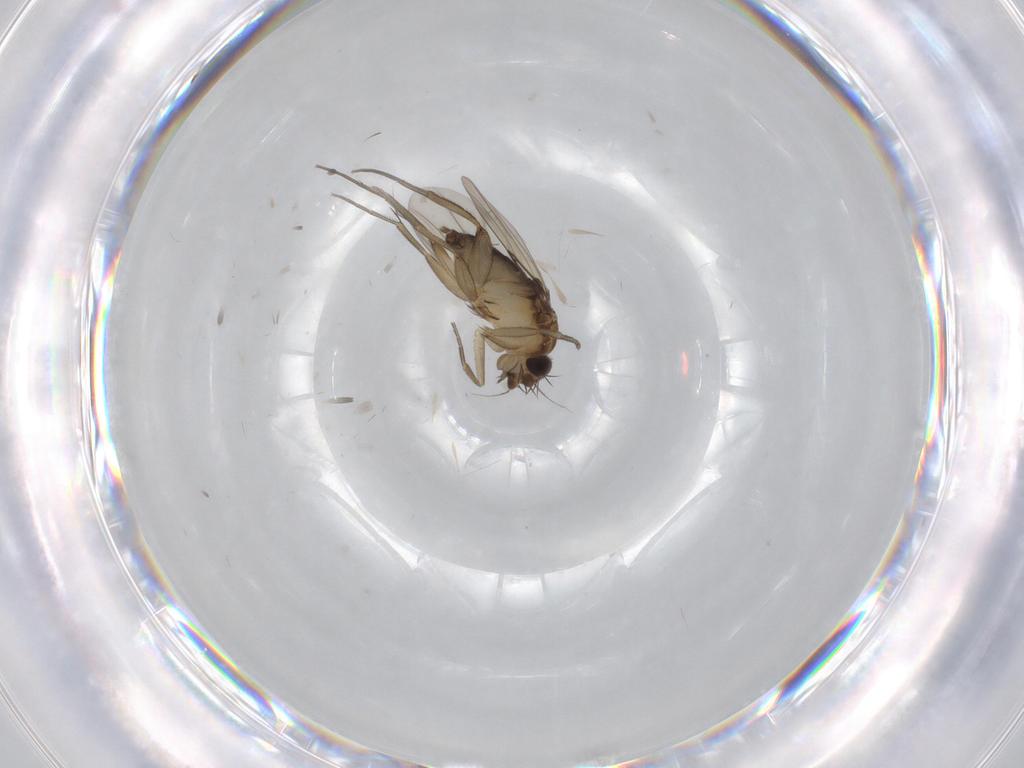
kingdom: Animalia
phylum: Arthropoda
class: Insecta
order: Diptera
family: Phoridae
